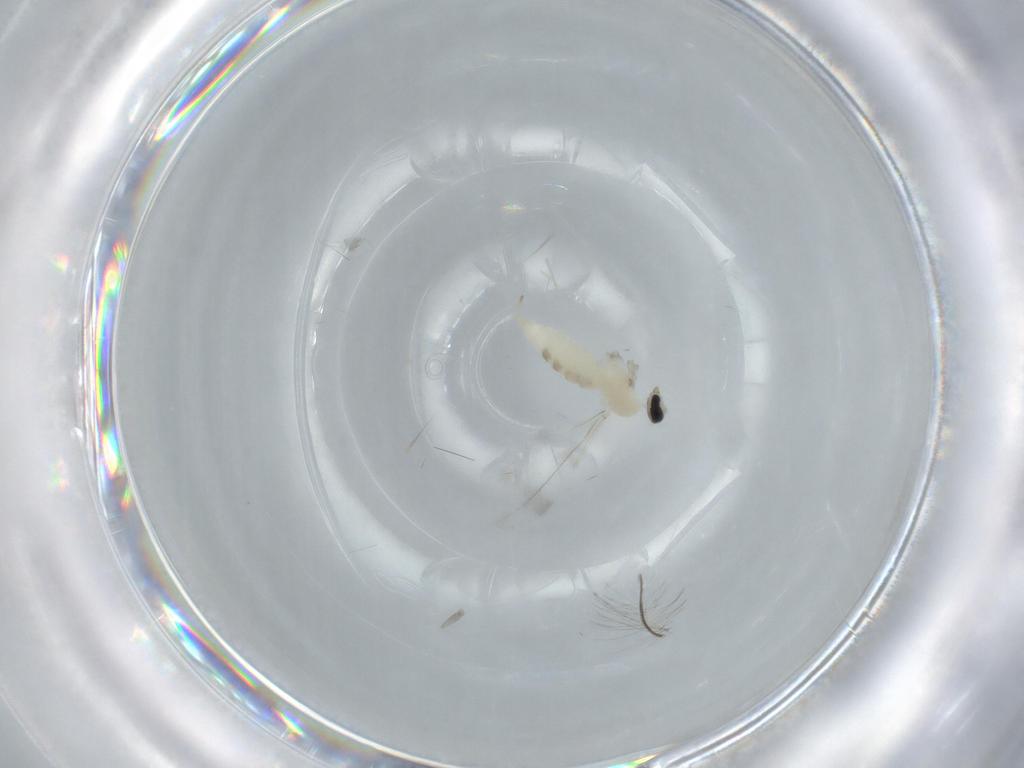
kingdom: Animalia
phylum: Arthropoda
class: Insecta
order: Diptera
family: Cecidomyiidae
